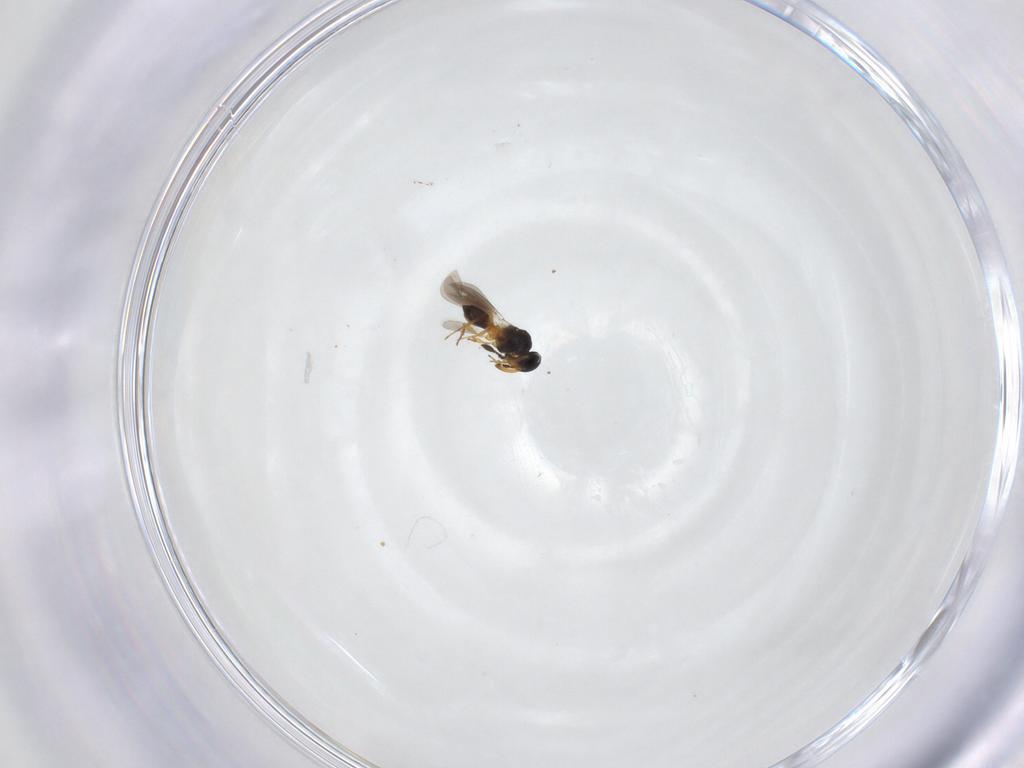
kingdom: Animalia
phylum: Arthropoda
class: Insecta
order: Hymenoptera
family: Platygastridae
